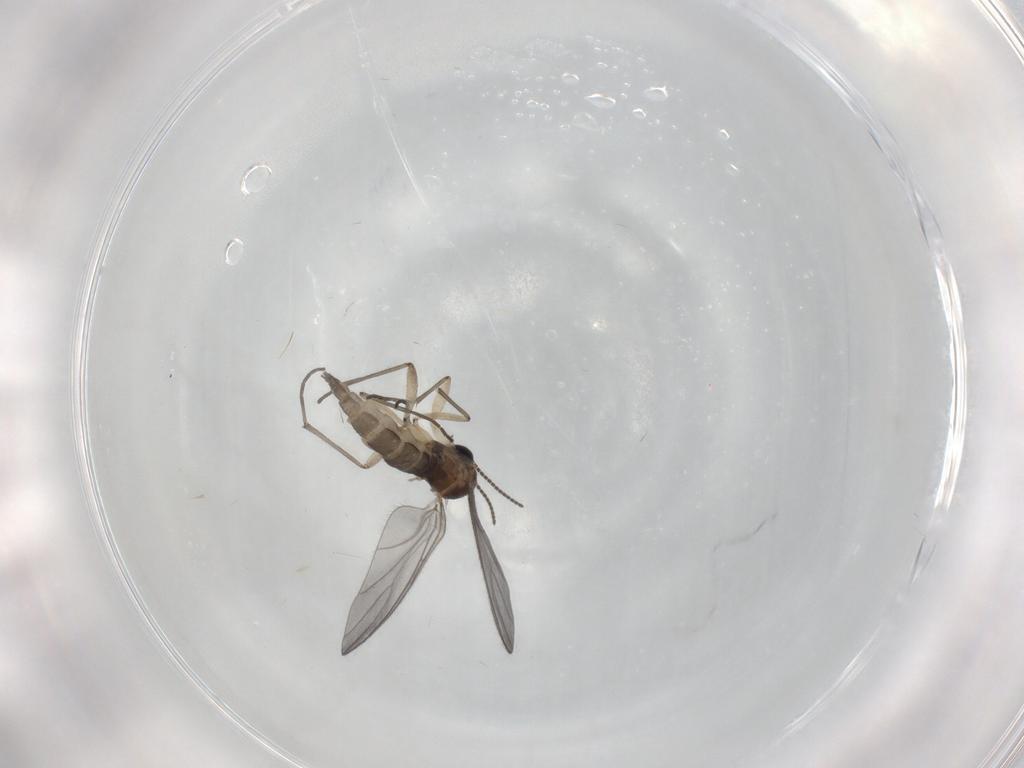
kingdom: Animalia
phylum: Arthropoda
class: Insecta
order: Diptera
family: Sciaridae
